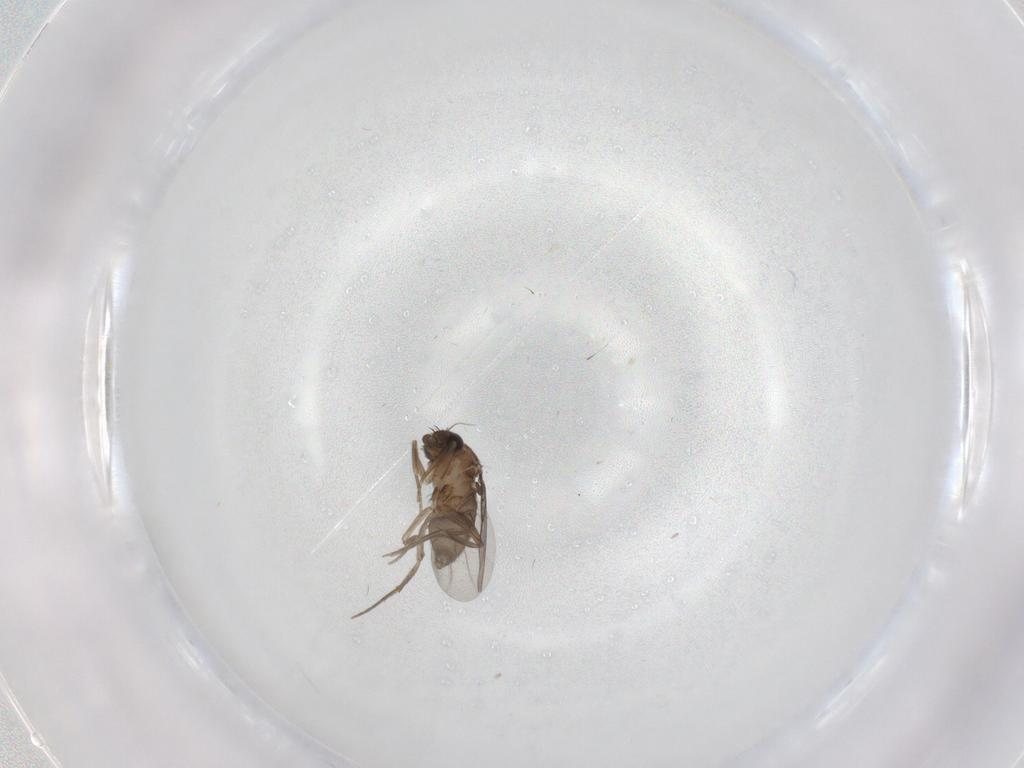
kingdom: Animalia
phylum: Arthropoda
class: Insecta
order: Diptera
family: Phoridae
